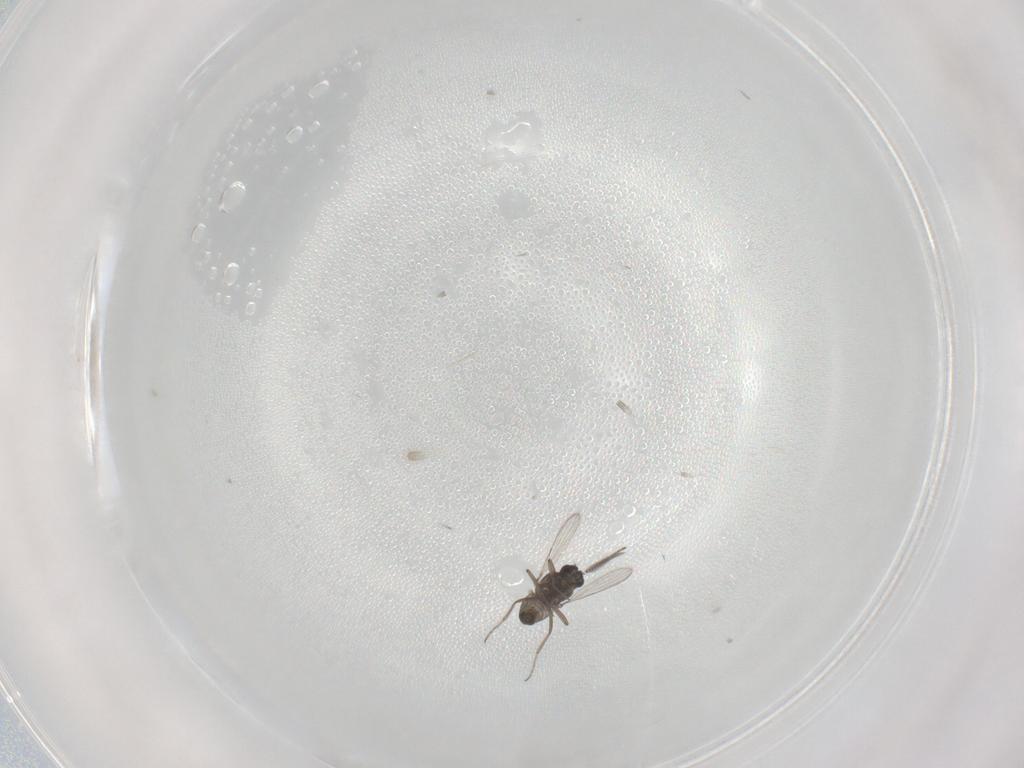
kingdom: Animalia
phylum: Arthropoda
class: Insecta
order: Diptera
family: Ceratopogonidae
